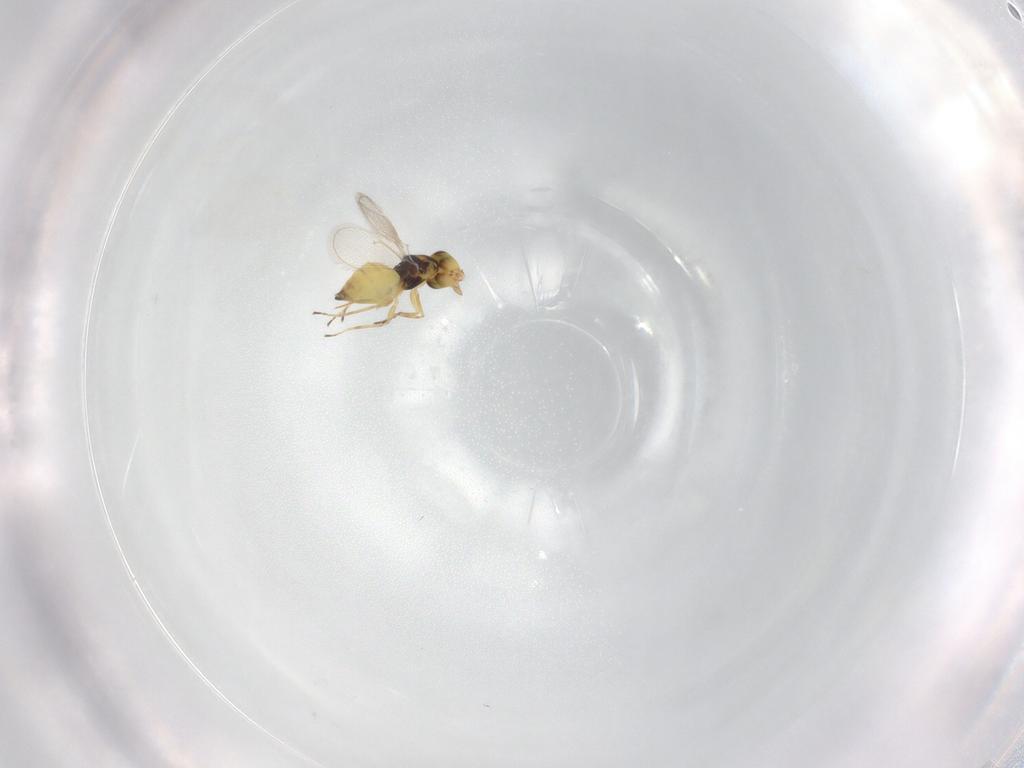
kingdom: Animalia
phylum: Arthropoda
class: Insecta
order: Hymenoptera
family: Eulophidae
